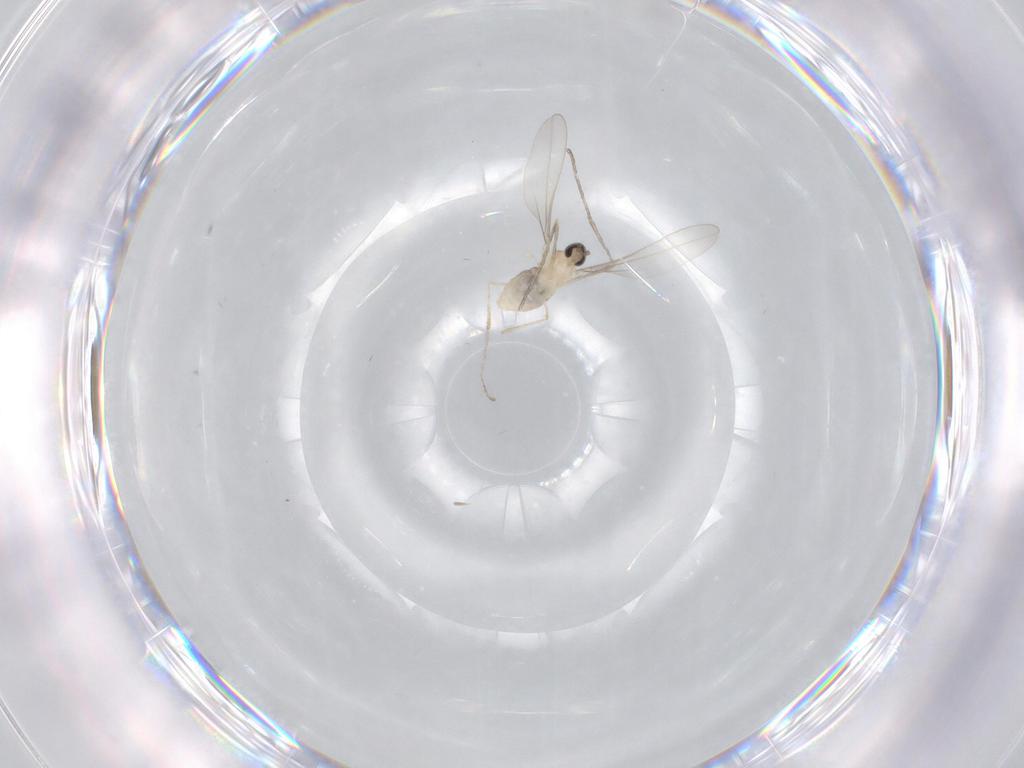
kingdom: Animalia
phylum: Arthropoda
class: Insecta
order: Diptera
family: Cecidomyiidae
